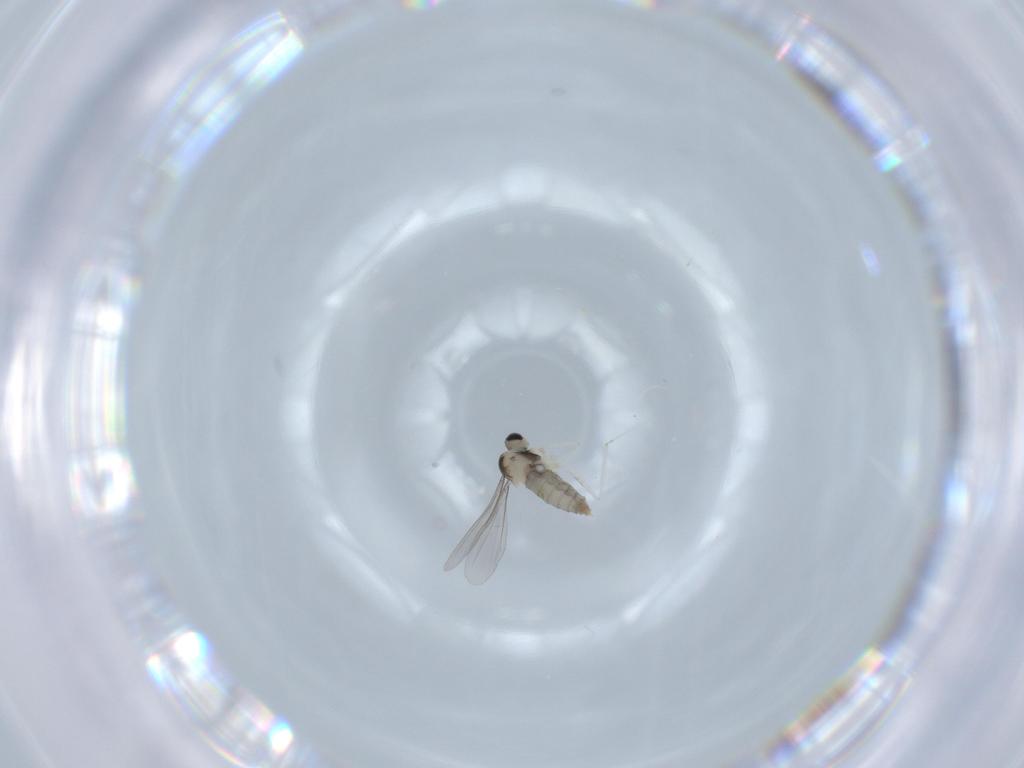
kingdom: Animalia
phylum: Arthropoda
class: Insecta
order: Diptera
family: Cecidomyiidae
